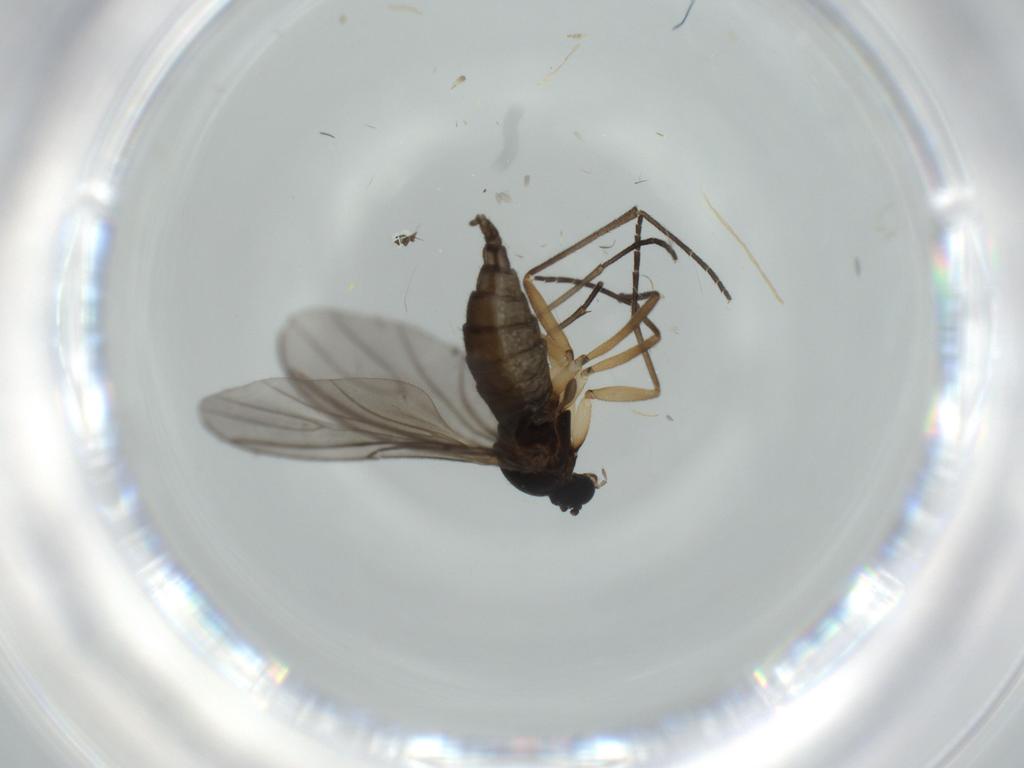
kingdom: Animalia
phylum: Arthropoda
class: Insecta
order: Diptera
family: Sciaridae
